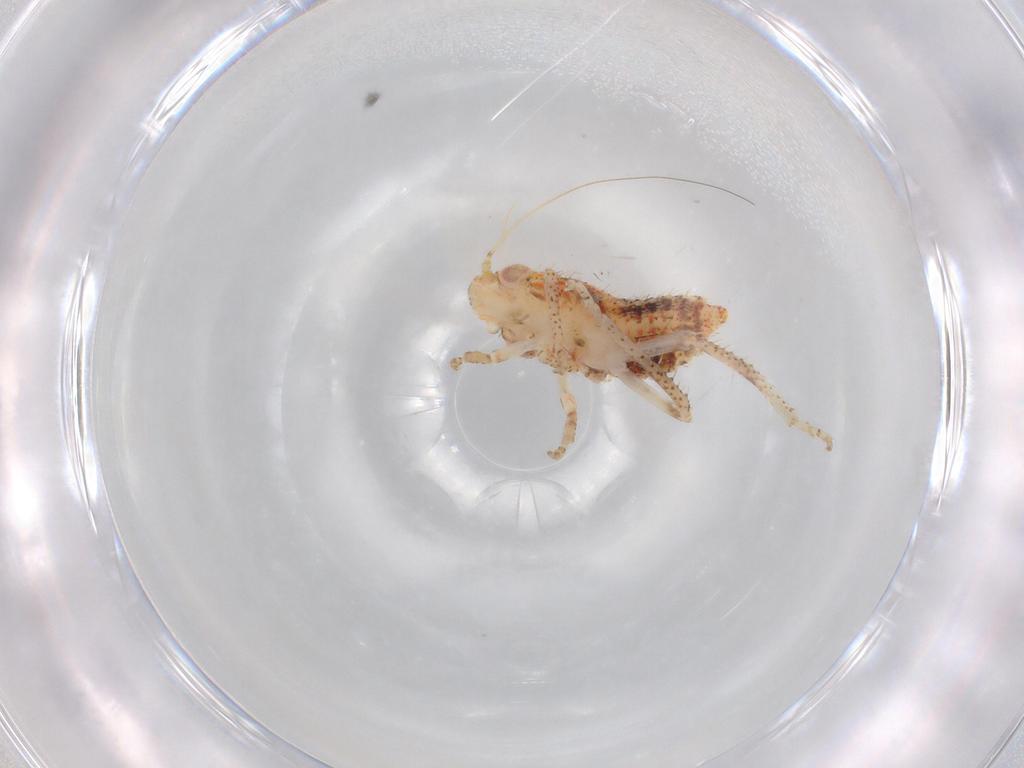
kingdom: Animalia
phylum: Arthropoda
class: Insecta
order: Hemiptera
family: Cicadellidae
